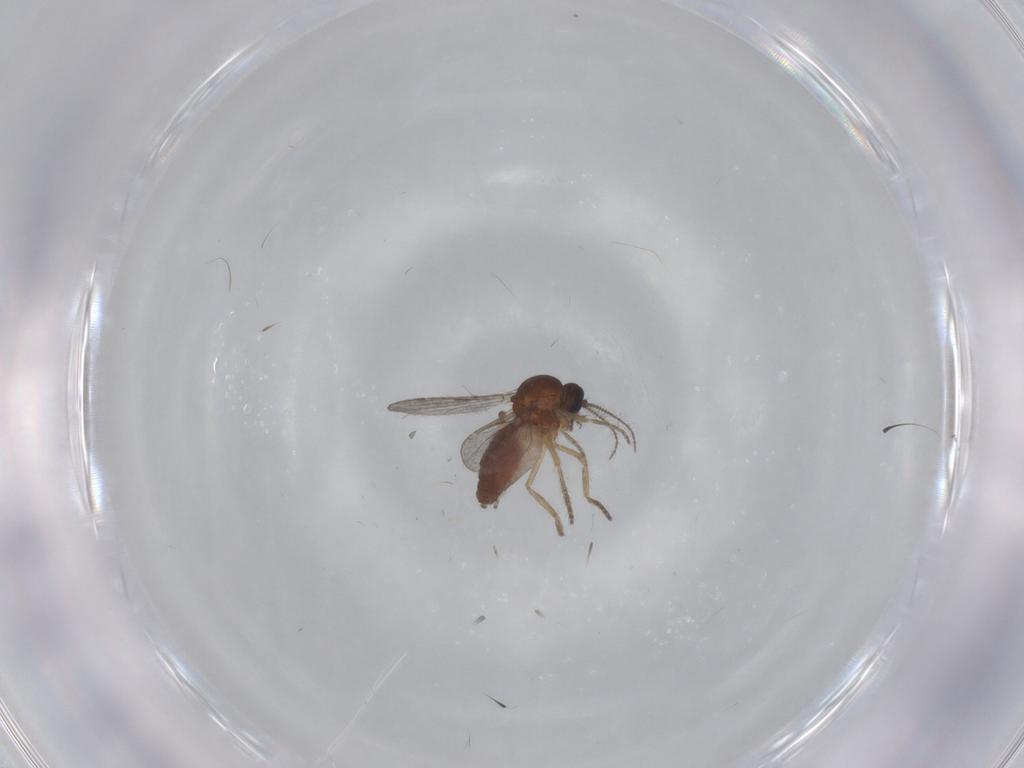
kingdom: Animalia
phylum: Arthropoda
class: Insecta
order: Diptera
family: Ceratopogonidae
